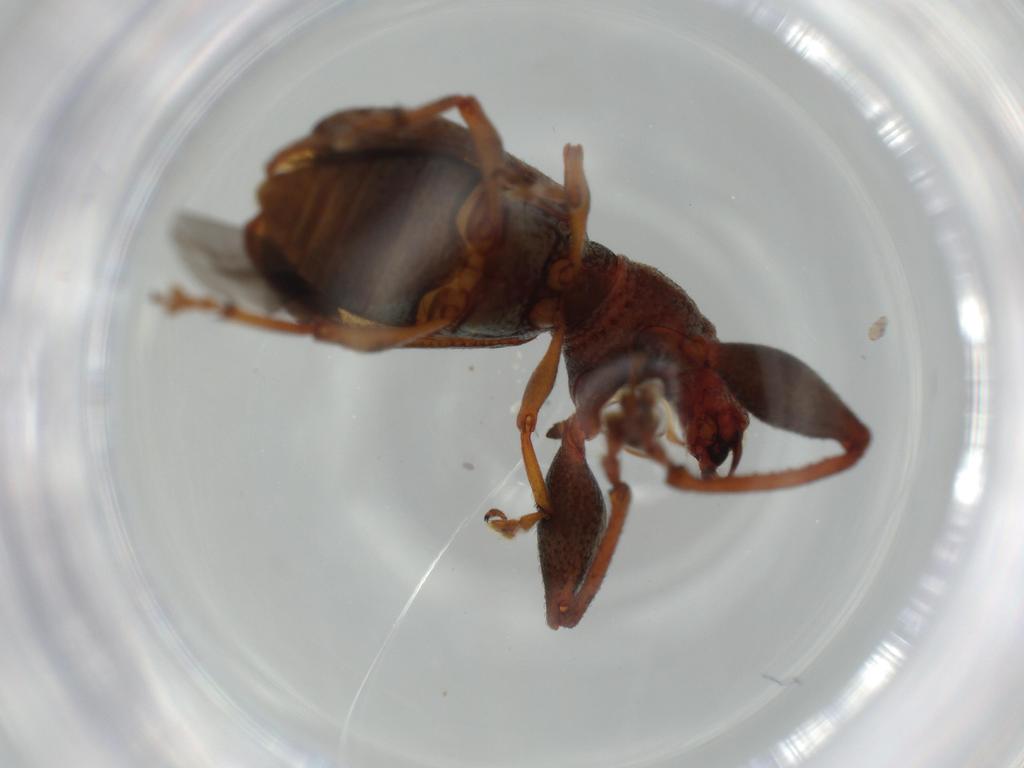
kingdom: Animalia
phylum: Arthropoda
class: Insecta
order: Coleoptera
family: Curculionidae
